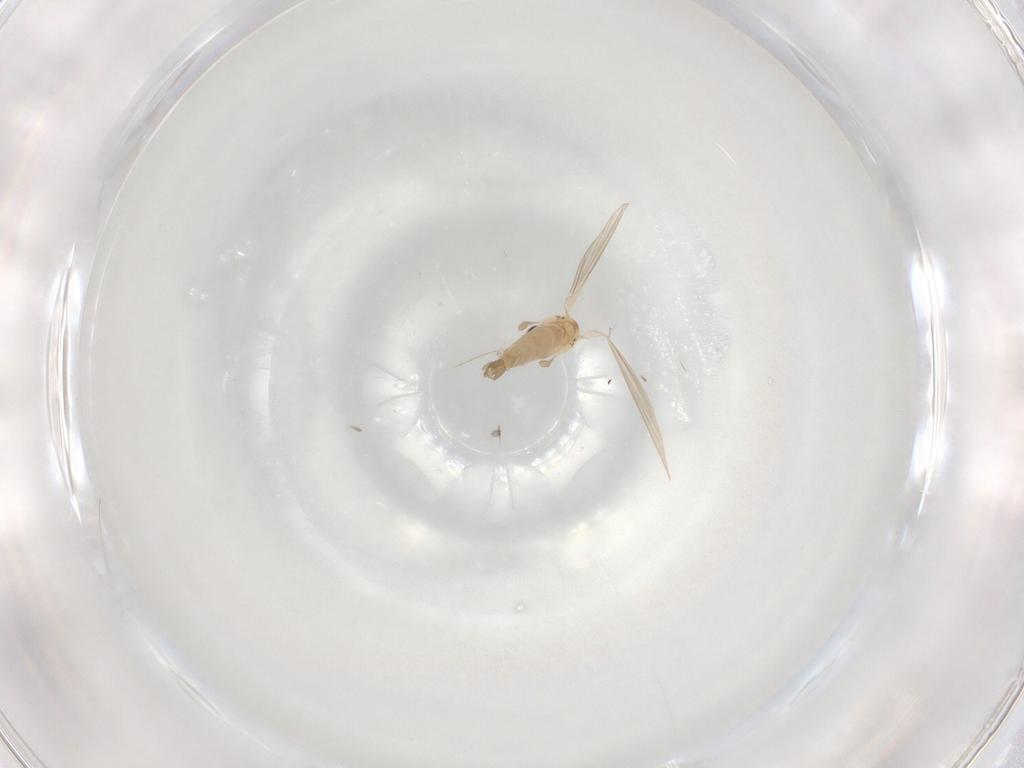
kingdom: Animalia
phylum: Arthropoda
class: Insecta
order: Diptera
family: Psychodidae
